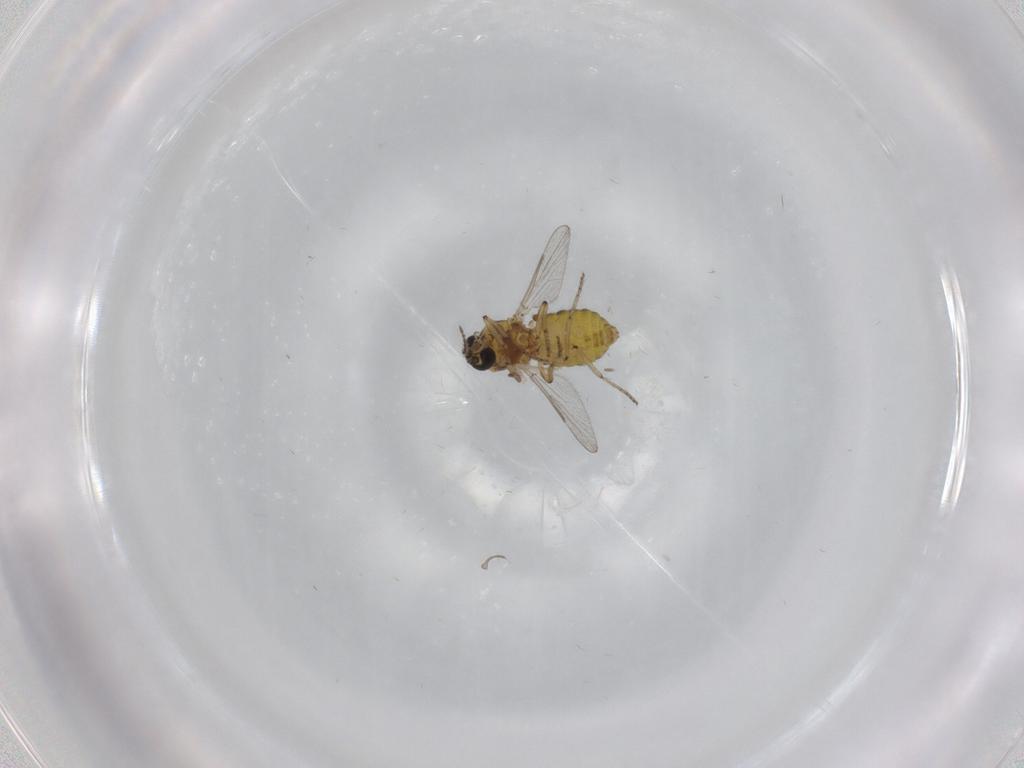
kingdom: Animalia
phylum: Arthropoda
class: Insecta
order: Diptera
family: Ceratopogonidae
